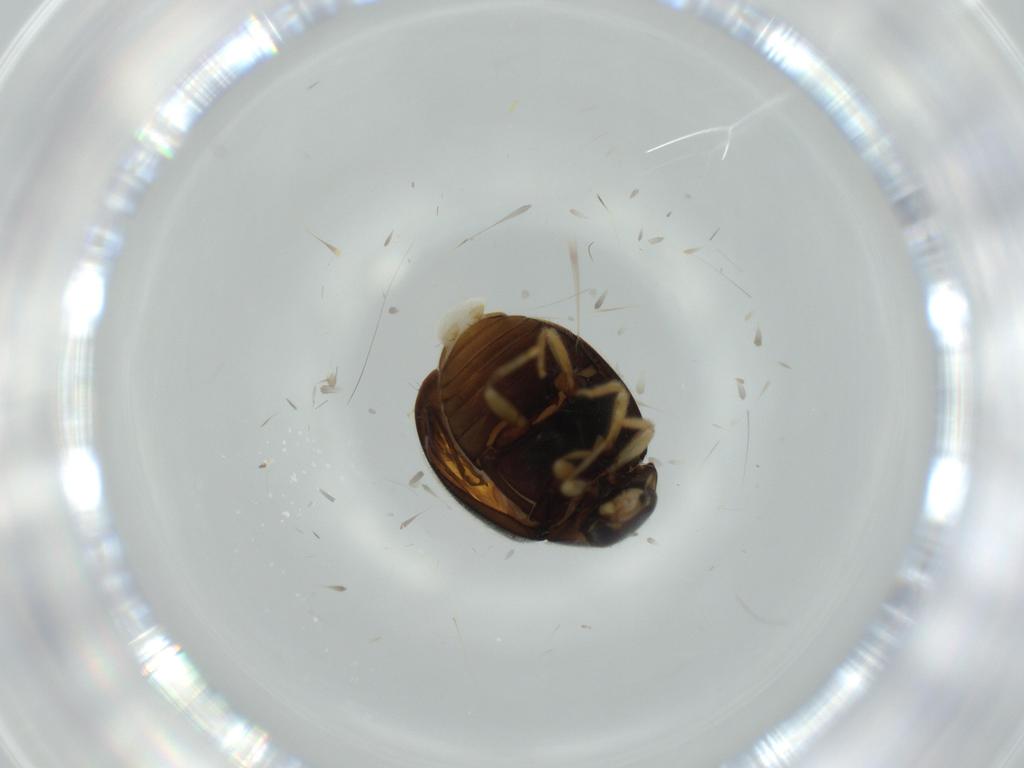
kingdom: Animalia
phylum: Arthropoda
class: Insecta
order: Coleoptera
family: Coccinellidae
